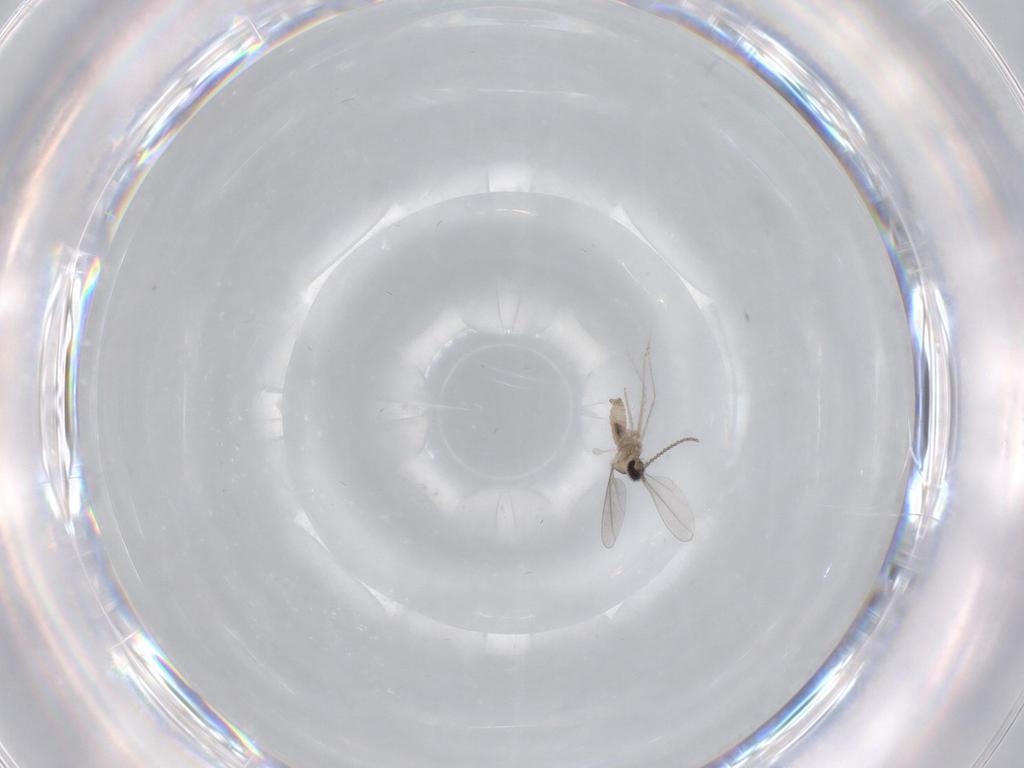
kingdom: Animalia
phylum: Arthropoda
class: Insecta
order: Diptera
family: Cecidomyiidae
